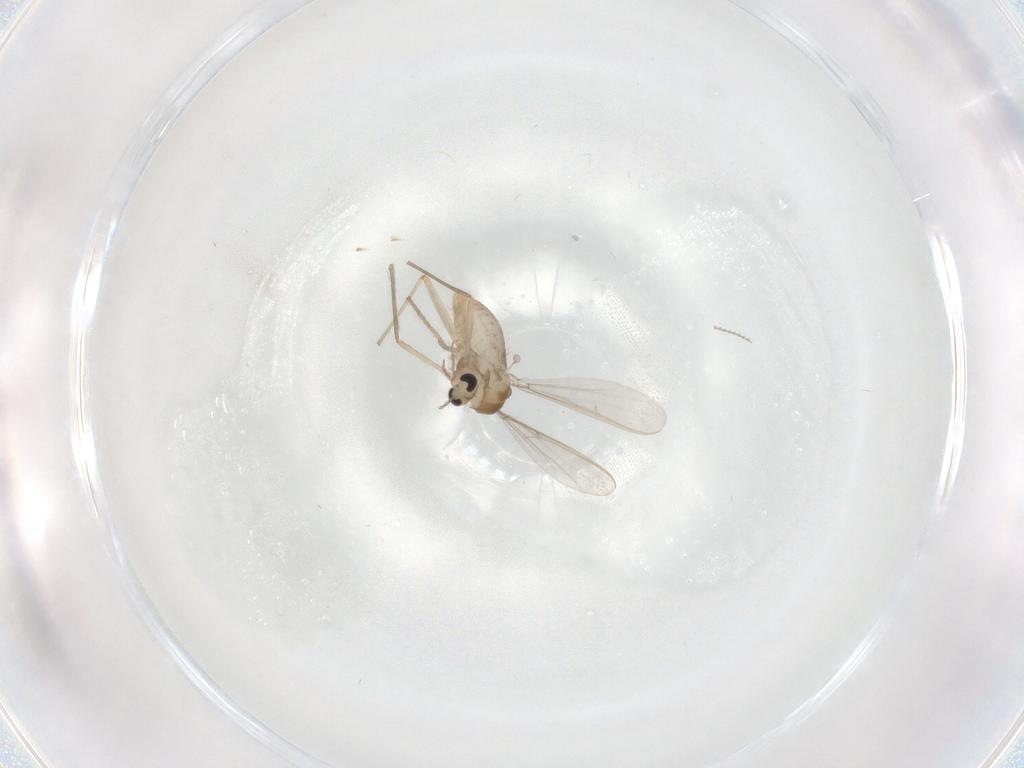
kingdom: Animalia
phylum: Arthropoda
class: Insecta
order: Diptera
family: Chironomidae
